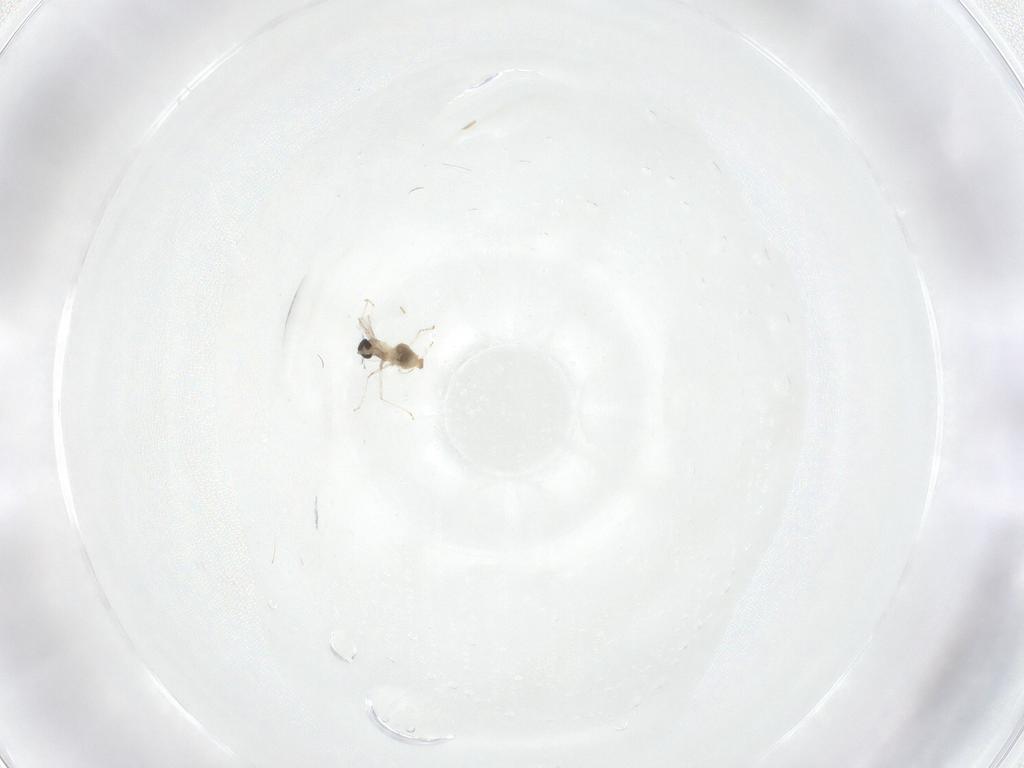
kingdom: Animalia
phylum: Arthropoda
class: Insecta
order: Diptera
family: Cecidomyiidae
